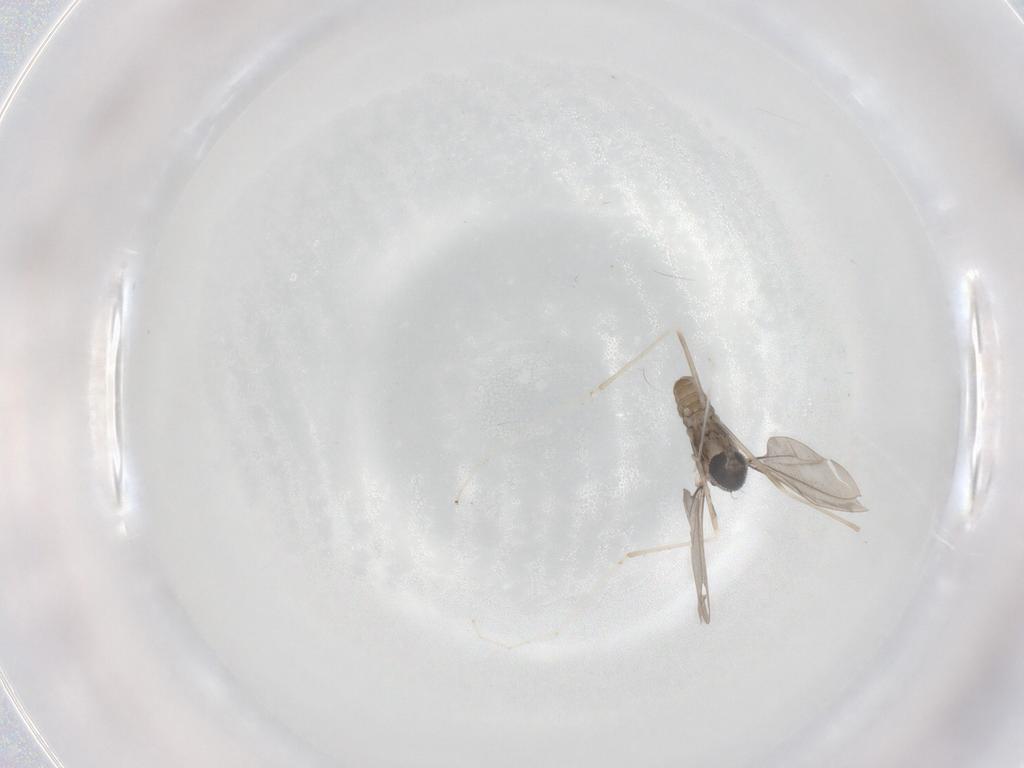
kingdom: Animalia
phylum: Arthropoda
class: Insecta
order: Diptera
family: Cecidomyiidae
